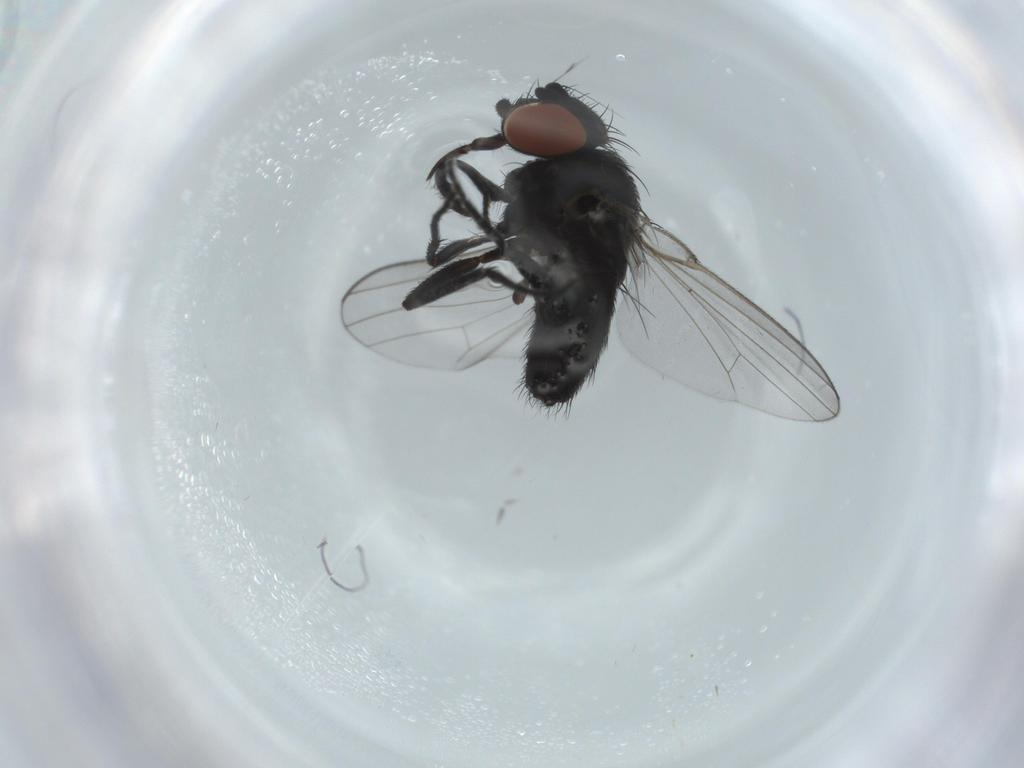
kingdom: Animalia
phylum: Arthropoda
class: Insecta
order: Diptera
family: Milichiidae
